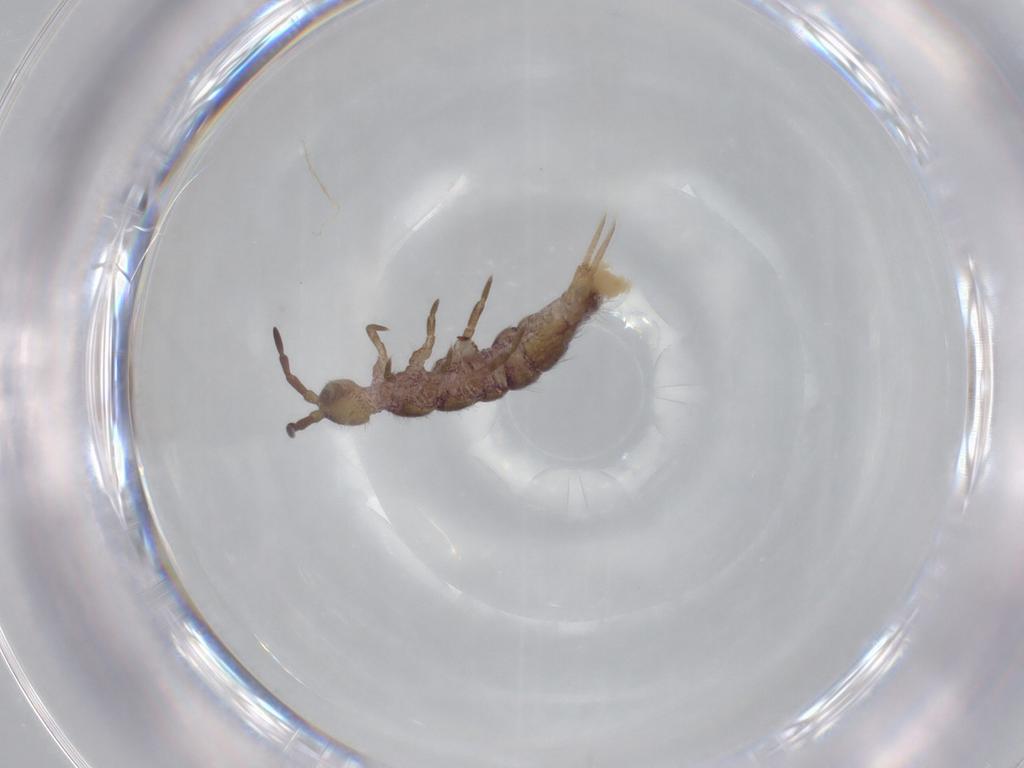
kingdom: Animalia
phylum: Arthropoda
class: Collembola
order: Entomobryomorpha
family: Isotomidae
